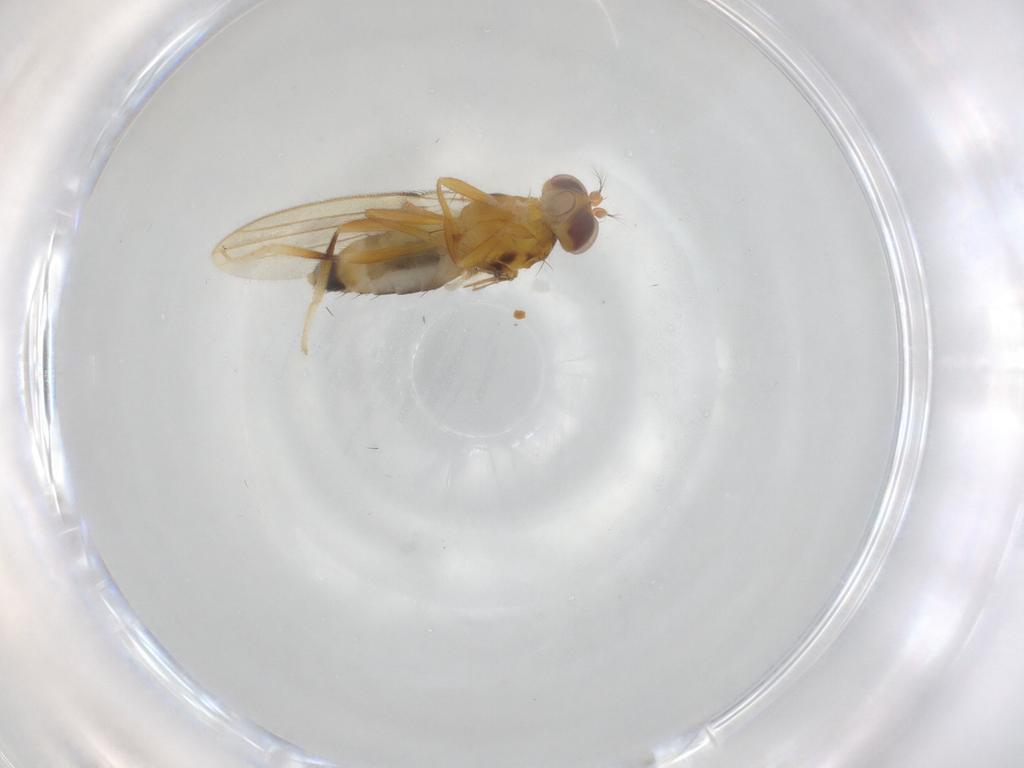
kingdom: Animalia
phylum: Arthropoda
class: Insecta
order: Diptera
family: Periscelididae
